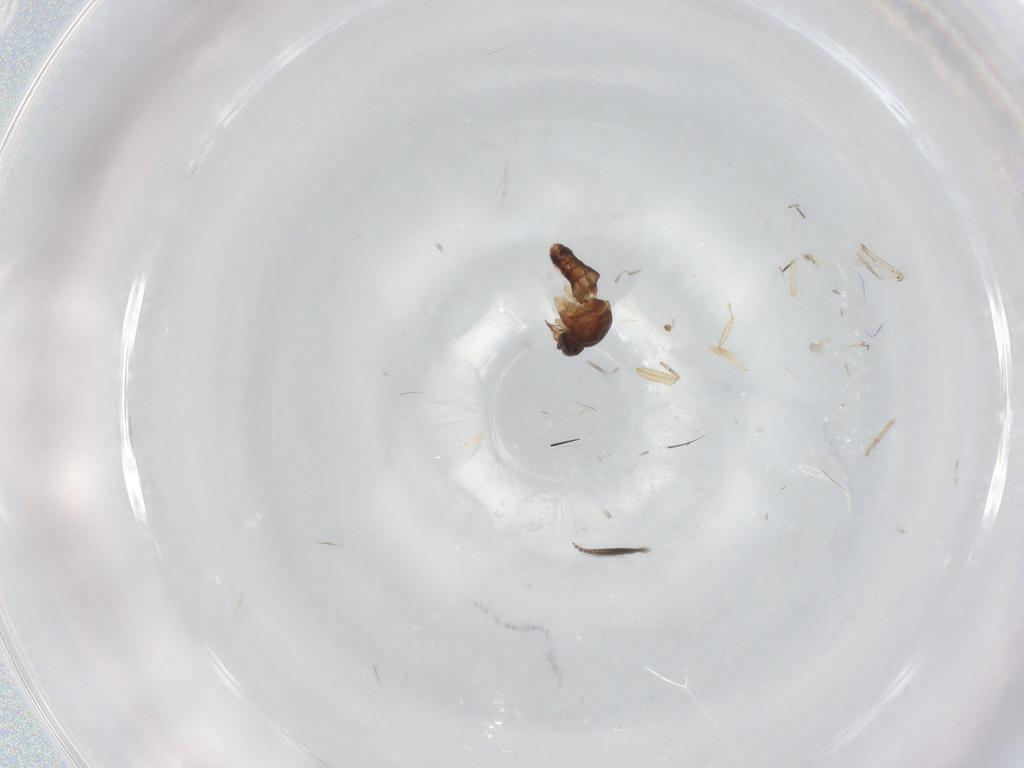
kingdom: Animalia
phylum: Arthropoda
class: Insecta
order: Diptera
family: Ceratopogonidae
